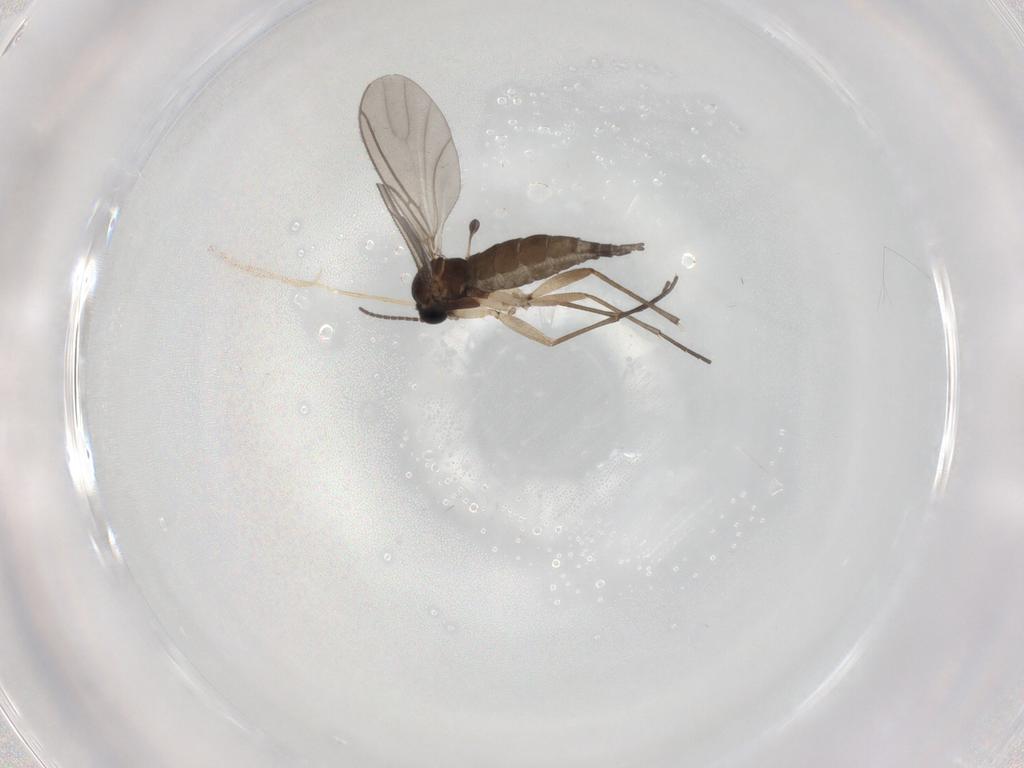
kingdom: Animalia
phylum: Arthropoda
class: Insecta
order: Diptera
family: Sciaridae
